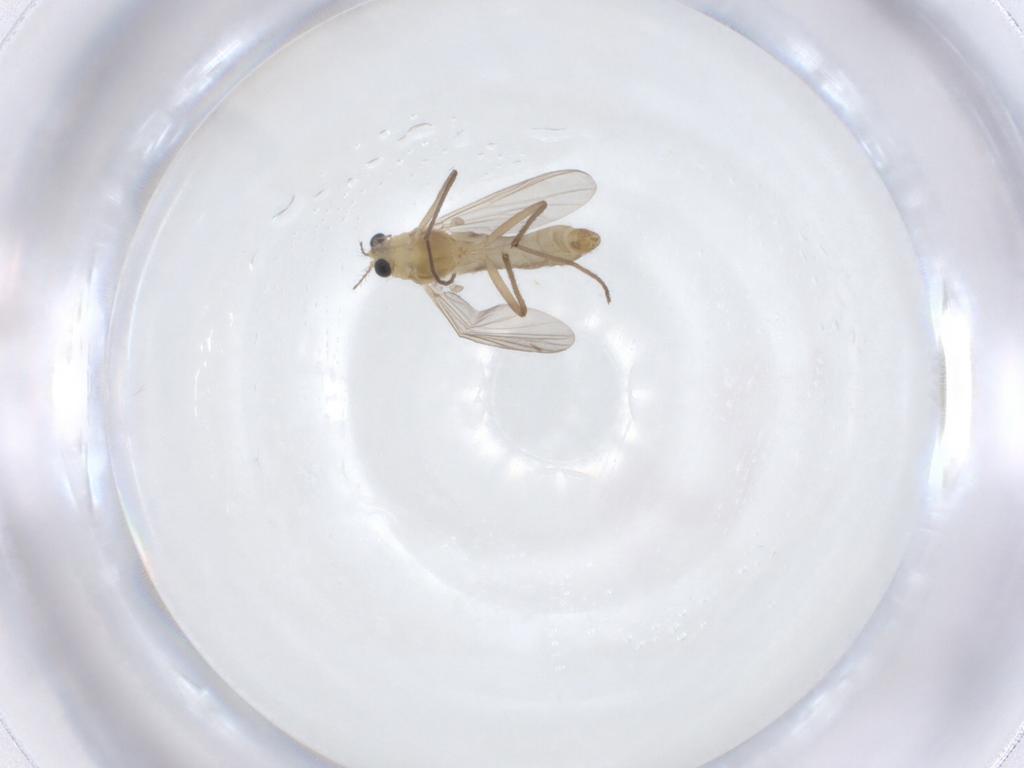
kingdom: Animalia
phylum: Arthropoda
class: Insecta
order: Diptera
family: Chironomidae
